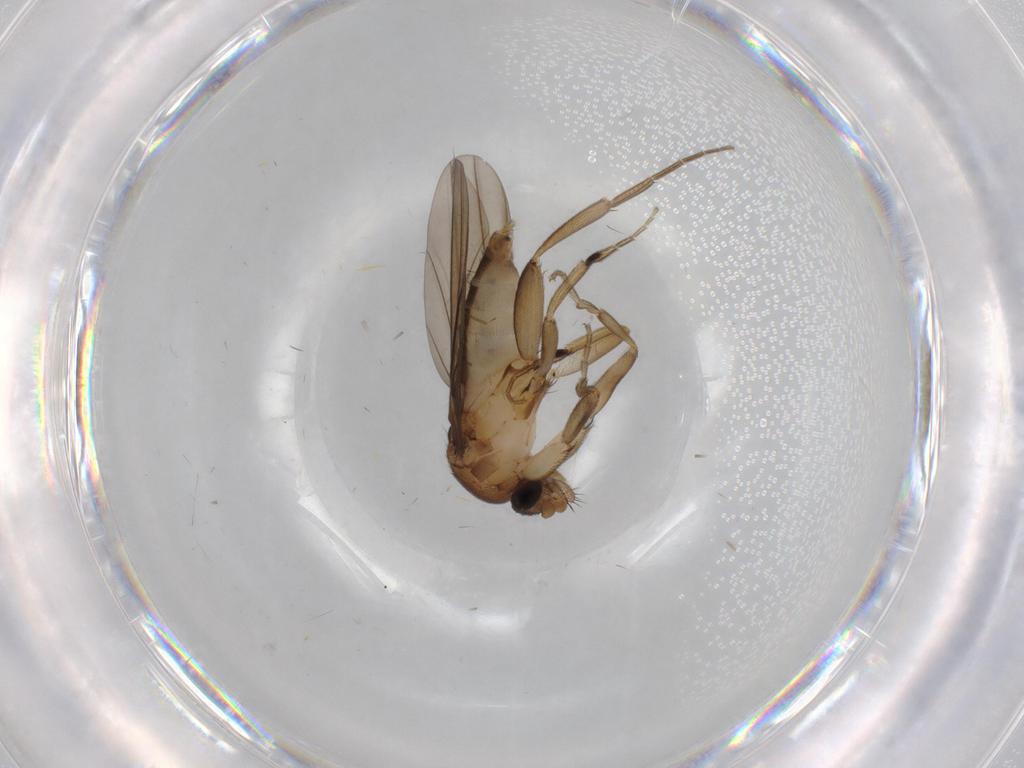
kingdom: Animalia
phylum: Arthropoda
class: Insecta
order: Diptera
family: Phoridae
